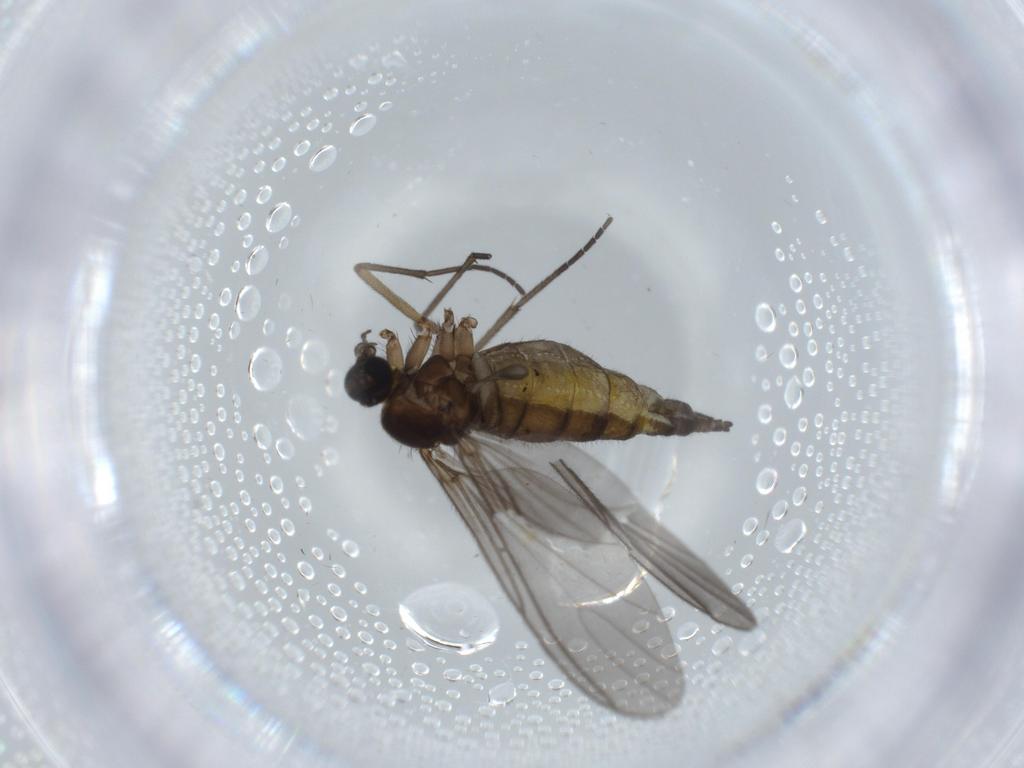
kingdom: Animalia
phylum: Arthropoda
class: Insecta
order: Diptera
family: Sciaridae
